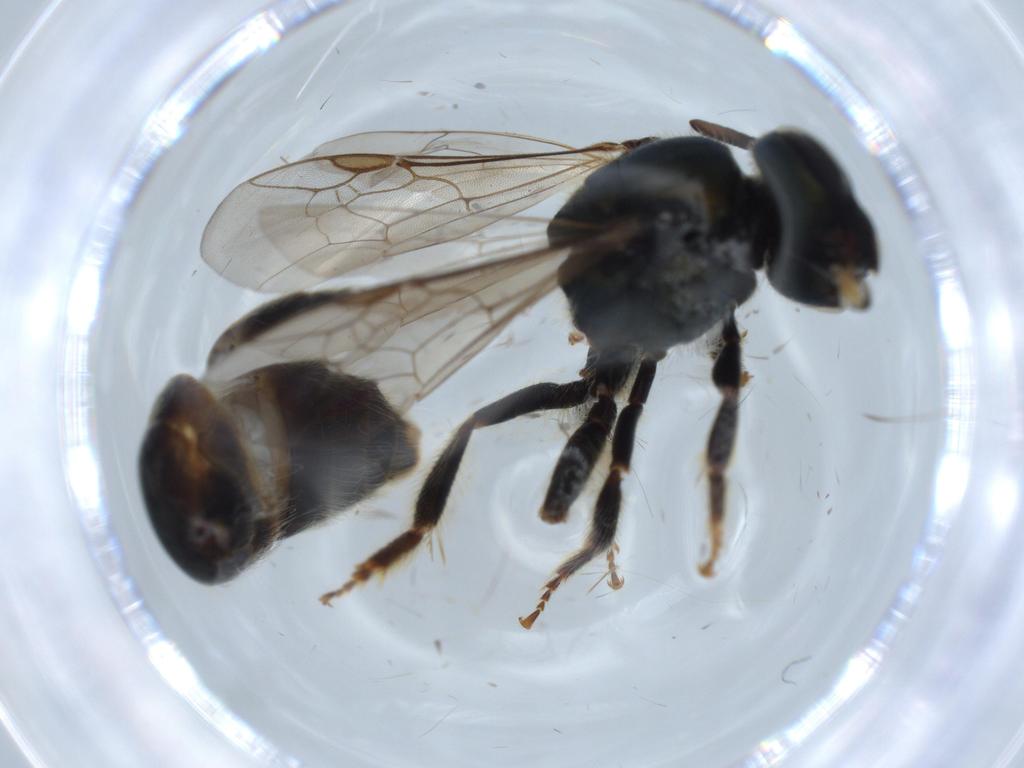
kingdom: Animalia
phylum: Arthropoda
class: Insecta
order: Hymenoptera
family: Halictidae
